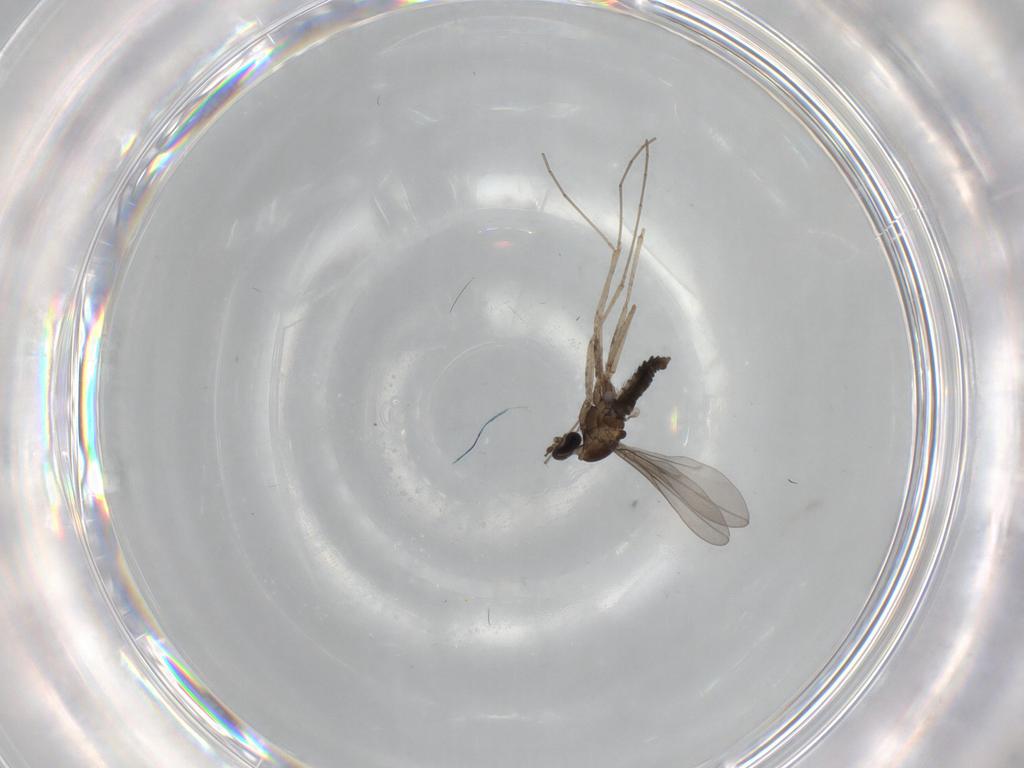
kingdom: Animalia
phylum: Arthropoda
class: Insecta
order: Diptera
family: Cecidomyiidae
